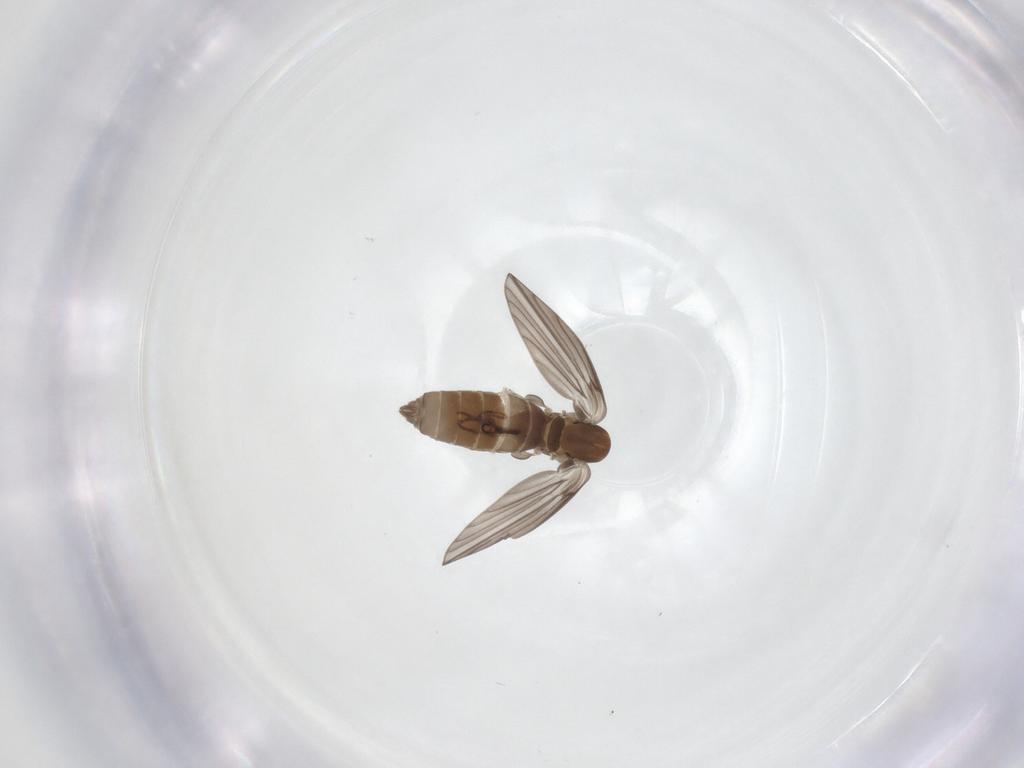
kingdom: Animalia
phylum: Arthropoda
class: Insecta
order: Diptera
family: Psychodidae
